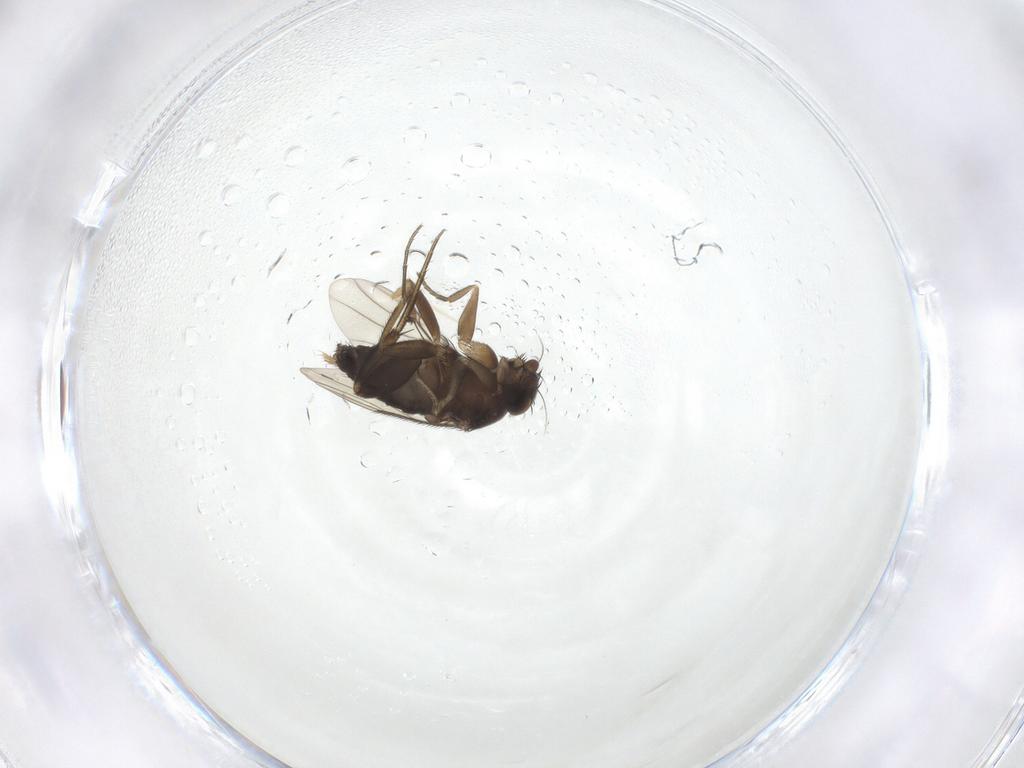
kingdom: Animalia
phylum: Arthropoda
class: Insecta
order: Diptera
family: Phoridae
